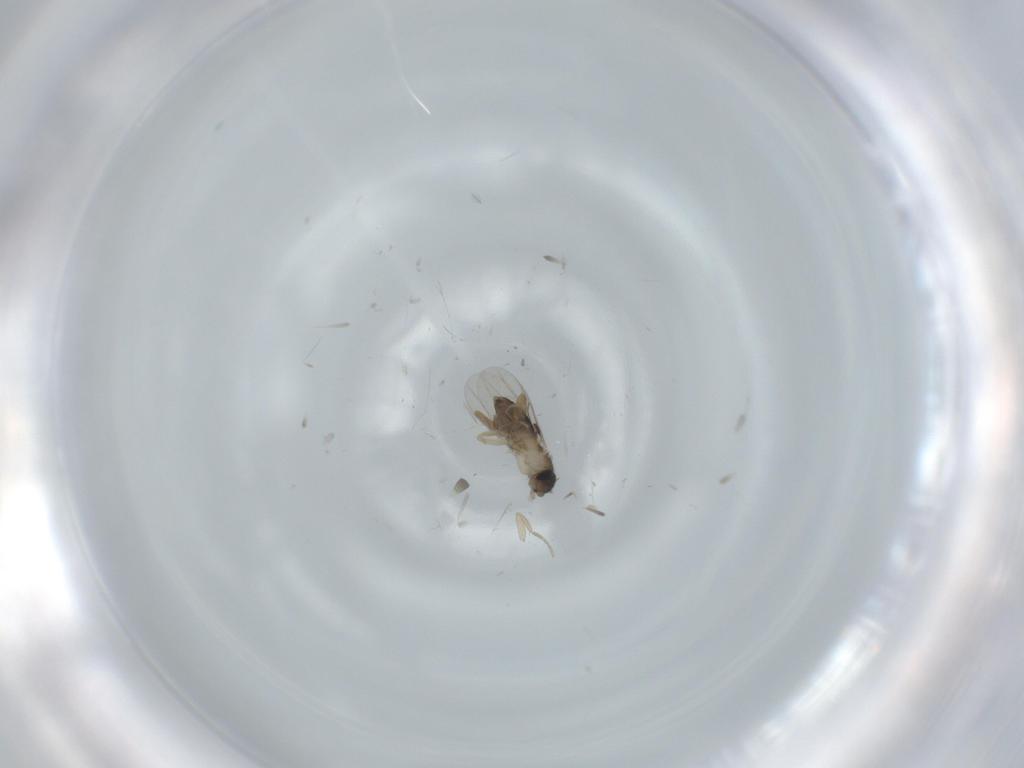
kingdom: Animalia
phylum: Arthropoda
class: Insecta
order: Diptera
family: Phoridae
